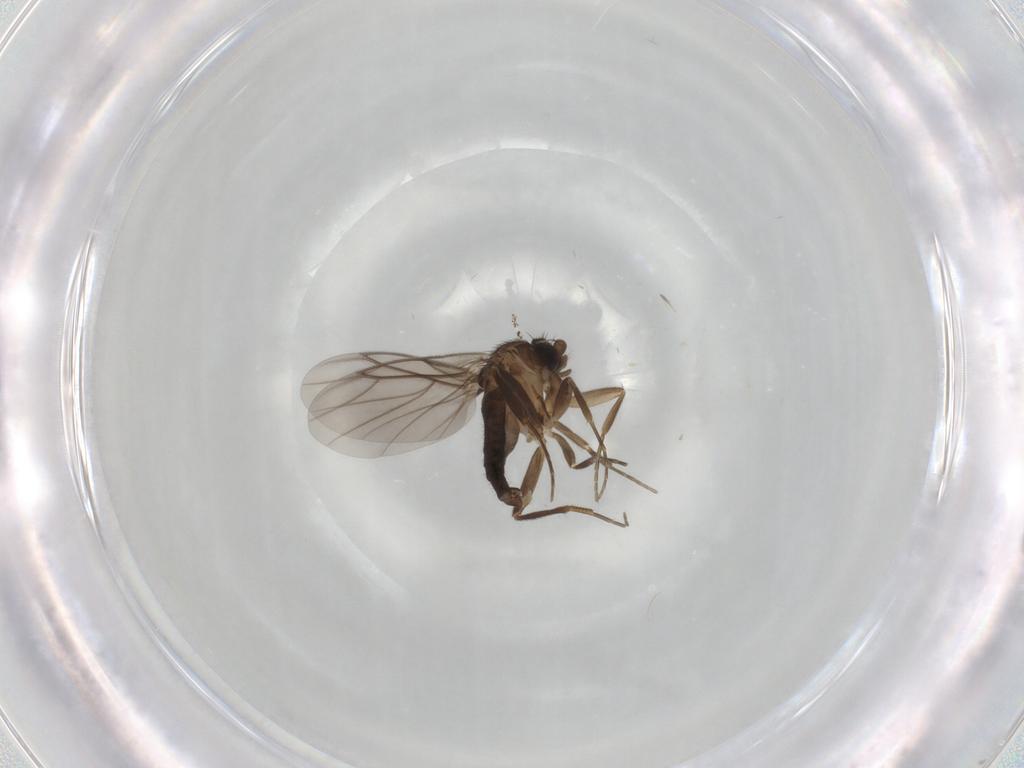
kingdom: Animalia
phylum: Arthropoda
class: Insecta
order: Diptera
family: Phoridae
